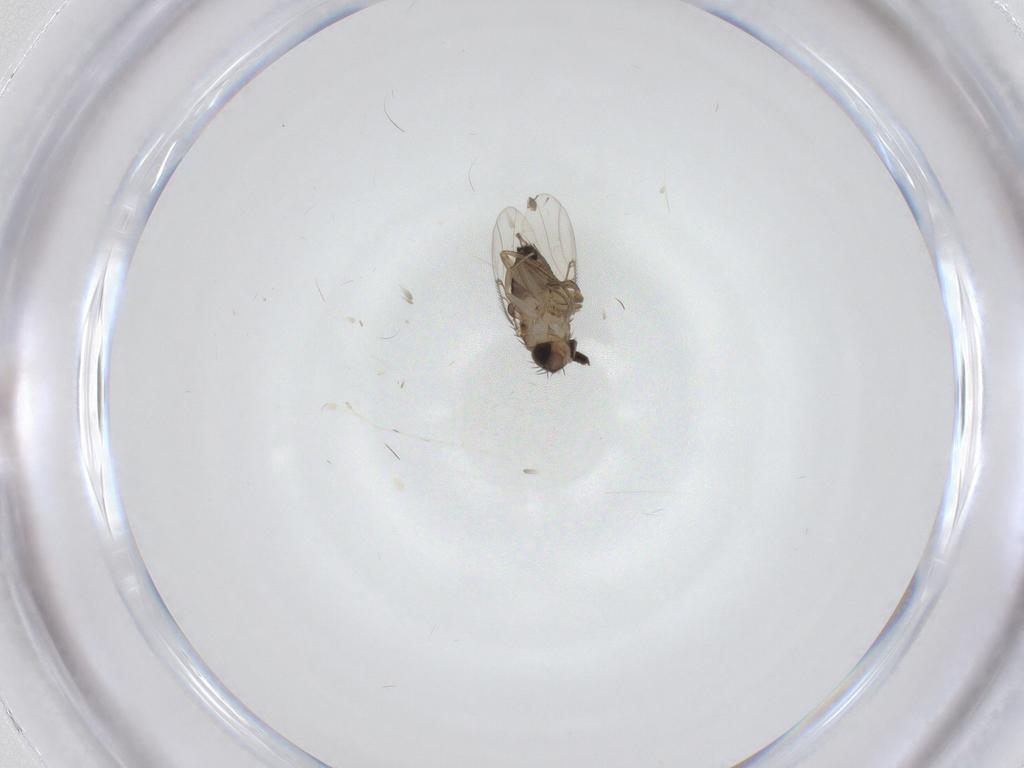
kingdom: Animalia
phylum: Arthropoda
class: Insecta
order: Diptera
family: Cecidomyiidae
